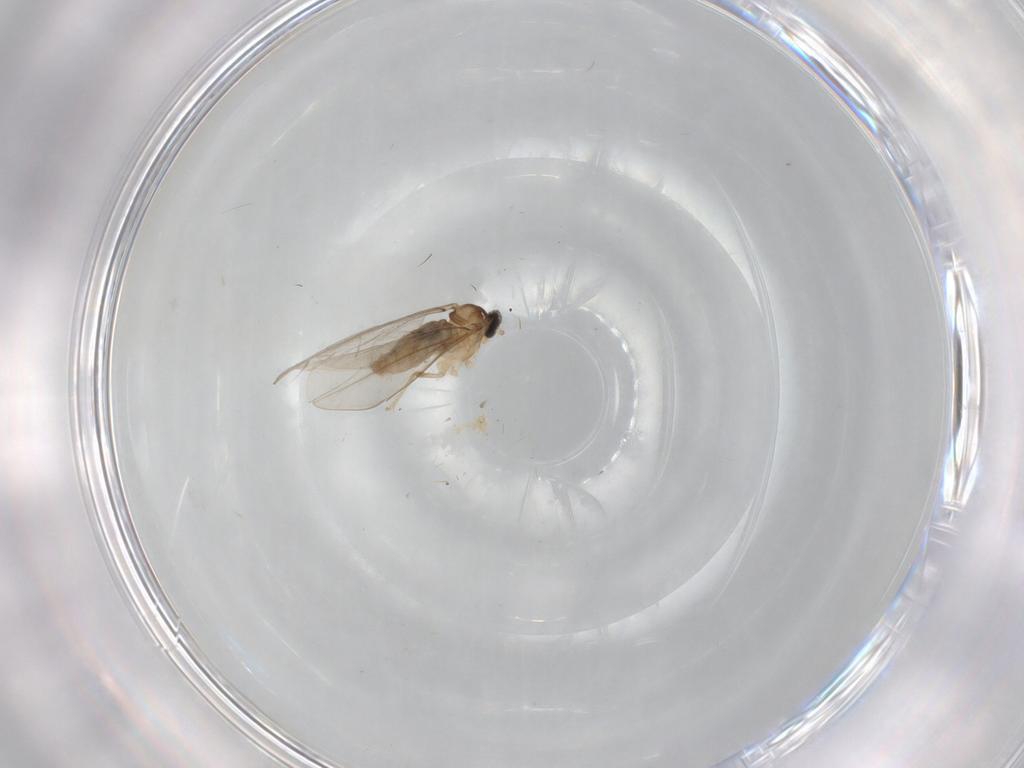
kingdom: Animalia
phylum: Arthropoda
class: Insecta
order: Diptera
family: Cecidomyiidae
